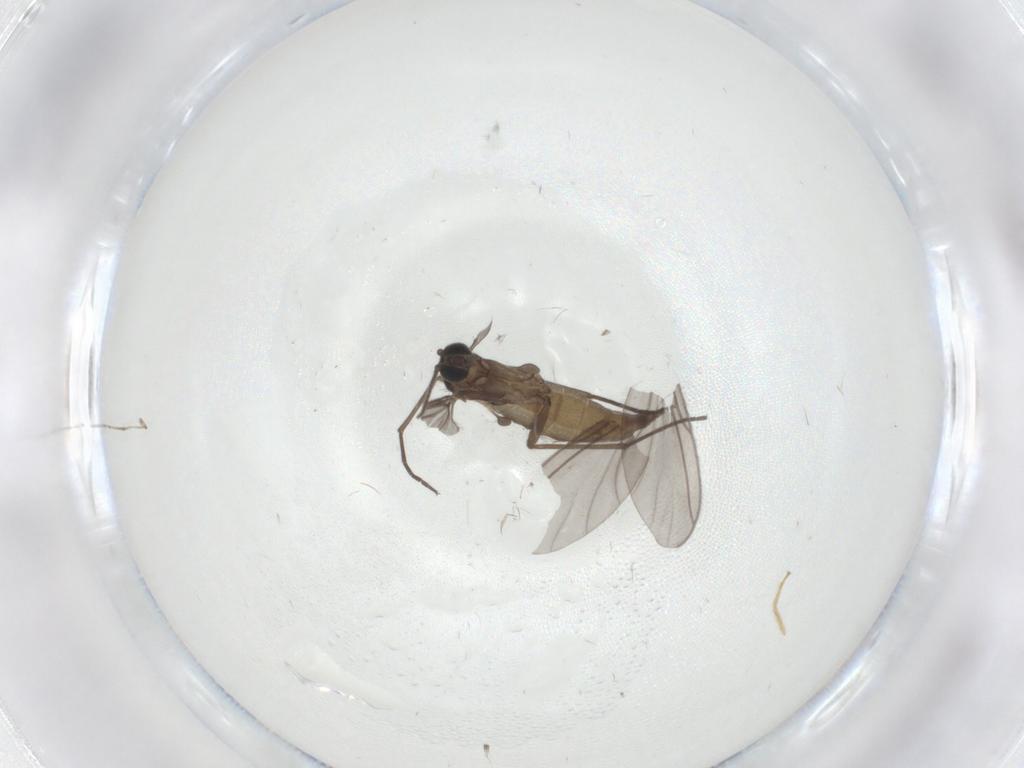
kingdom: Animalia
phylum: Arthropoda
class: Insecta
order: Diptera
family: Sciaridae
